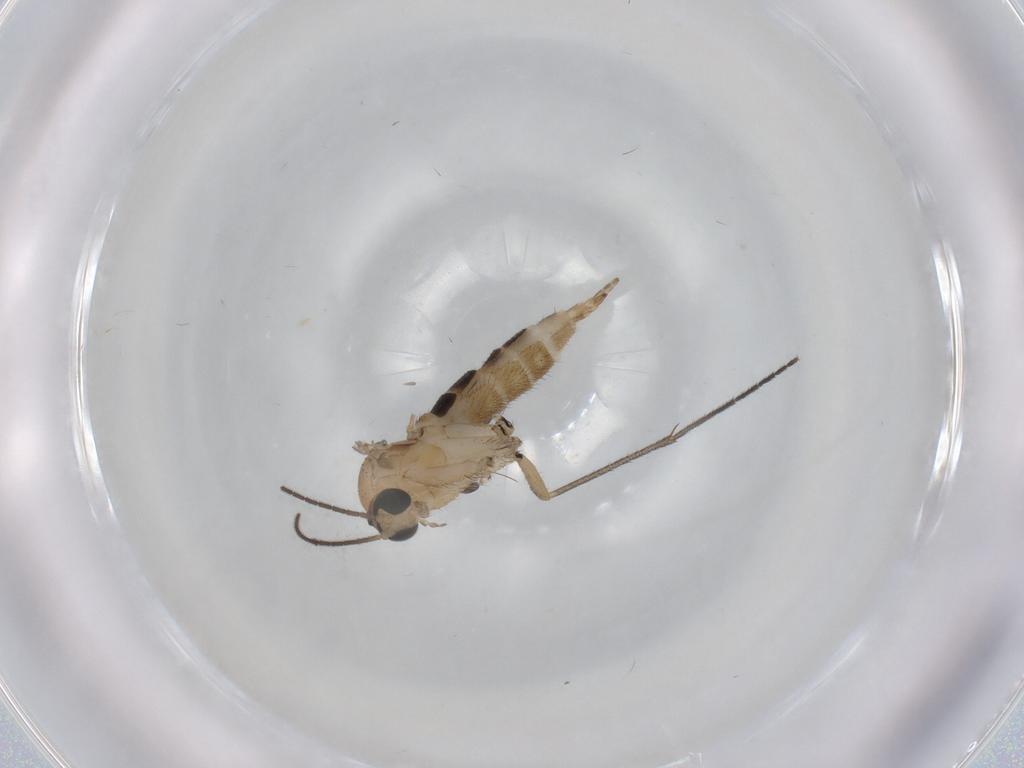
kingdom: Animalia
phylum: Arthropoda
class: Insecta
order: Diptera
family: Sciaridae
